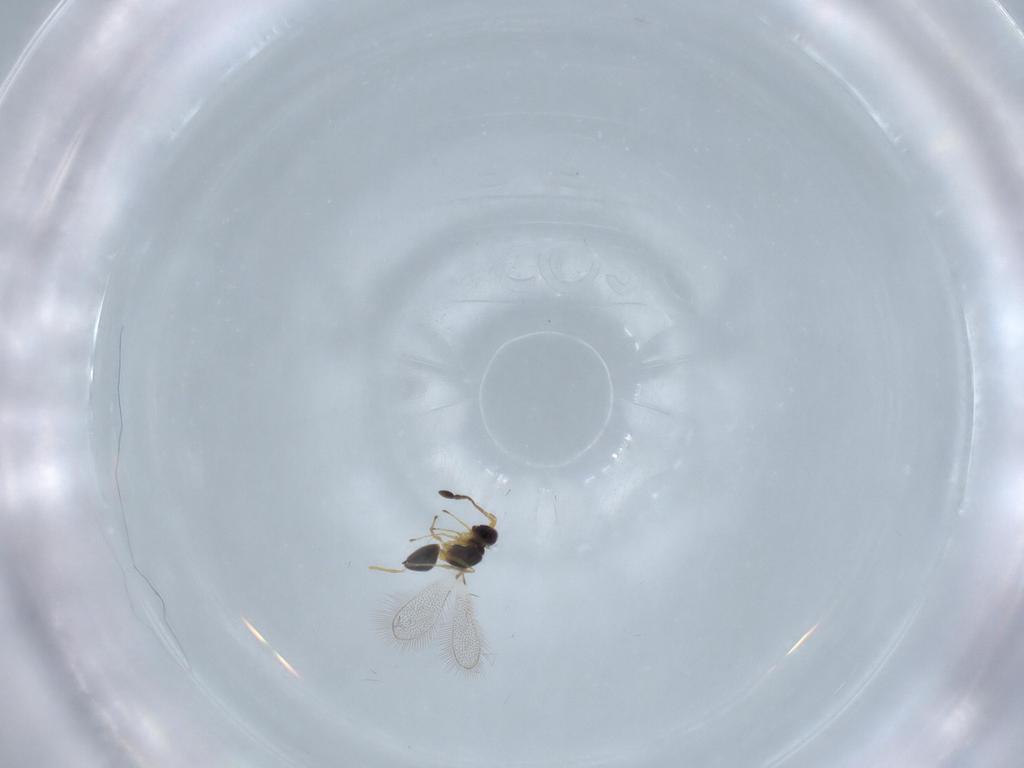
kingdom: Animalia
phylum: Arthropoda
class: Insecta
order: Hymenoptera
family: Mymaridae
